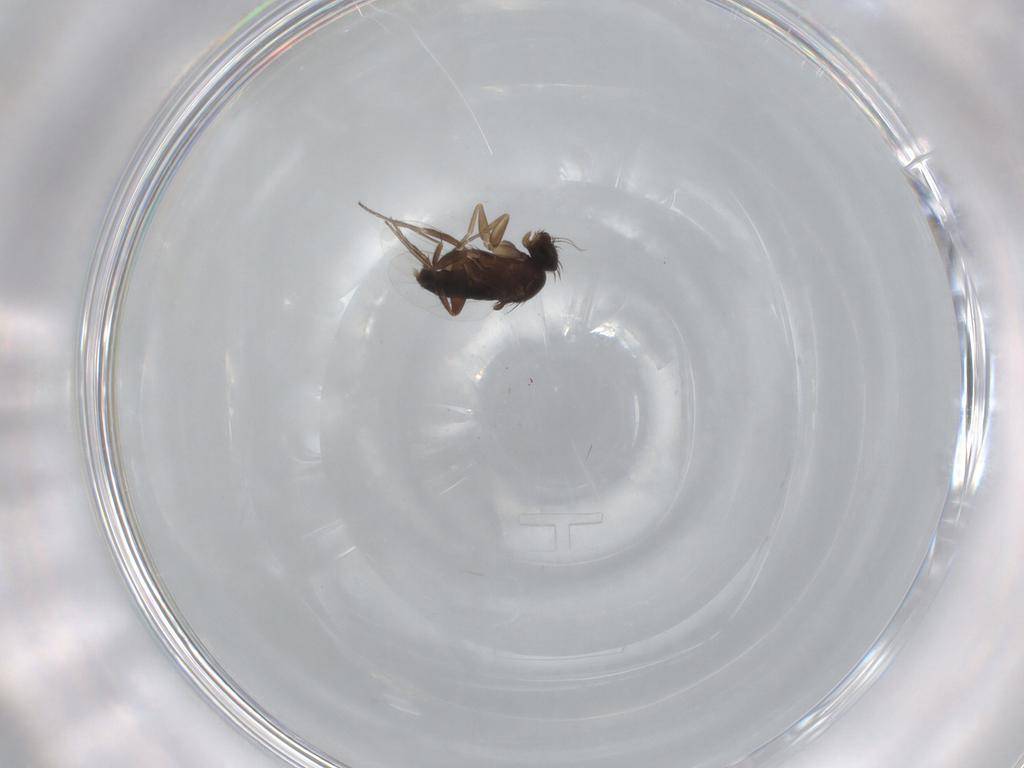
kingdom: Animalia
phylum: Arthropoda
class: Insecta
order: Diptera
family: Phoridae
